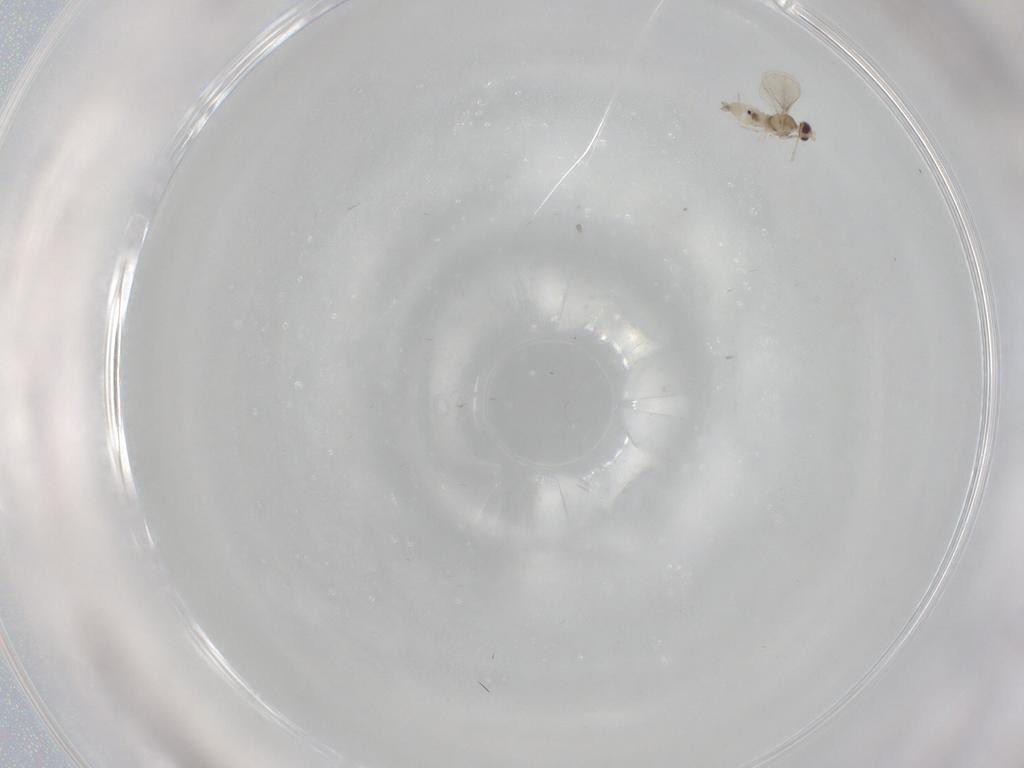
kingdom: Animalia
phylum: Arthropoda
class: Insecta
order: Diptera
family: Cecidomyiidae
